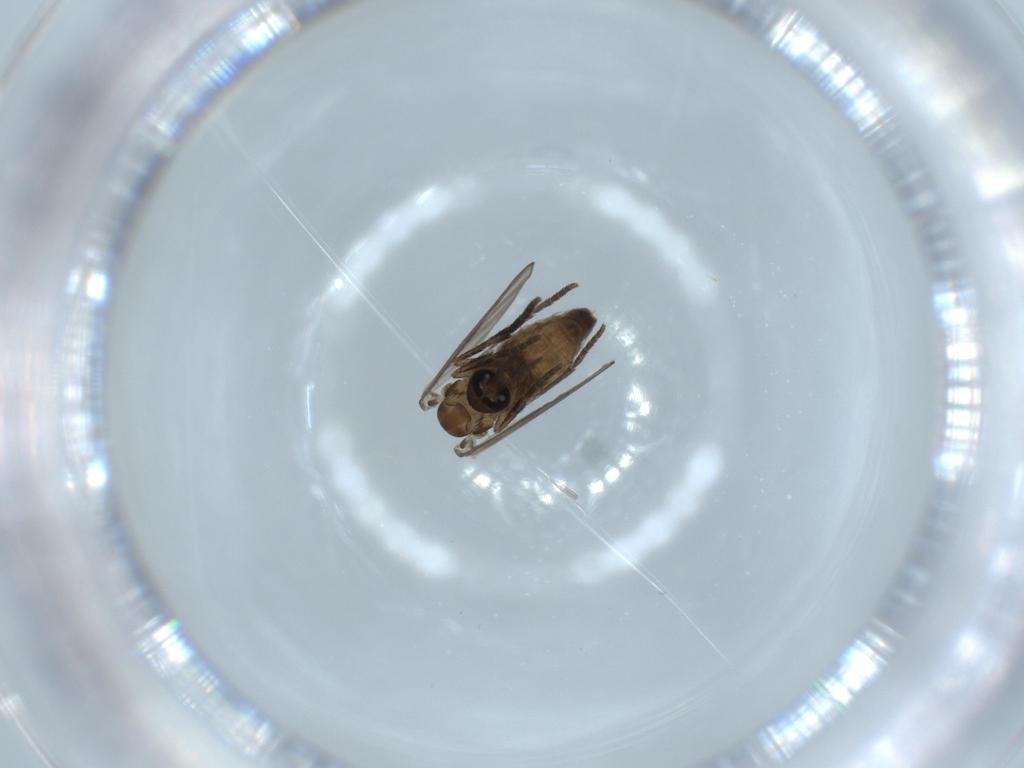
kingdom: Animalia
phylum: Arthropoda
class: Insecta
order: Diptera
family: Psychodidae
